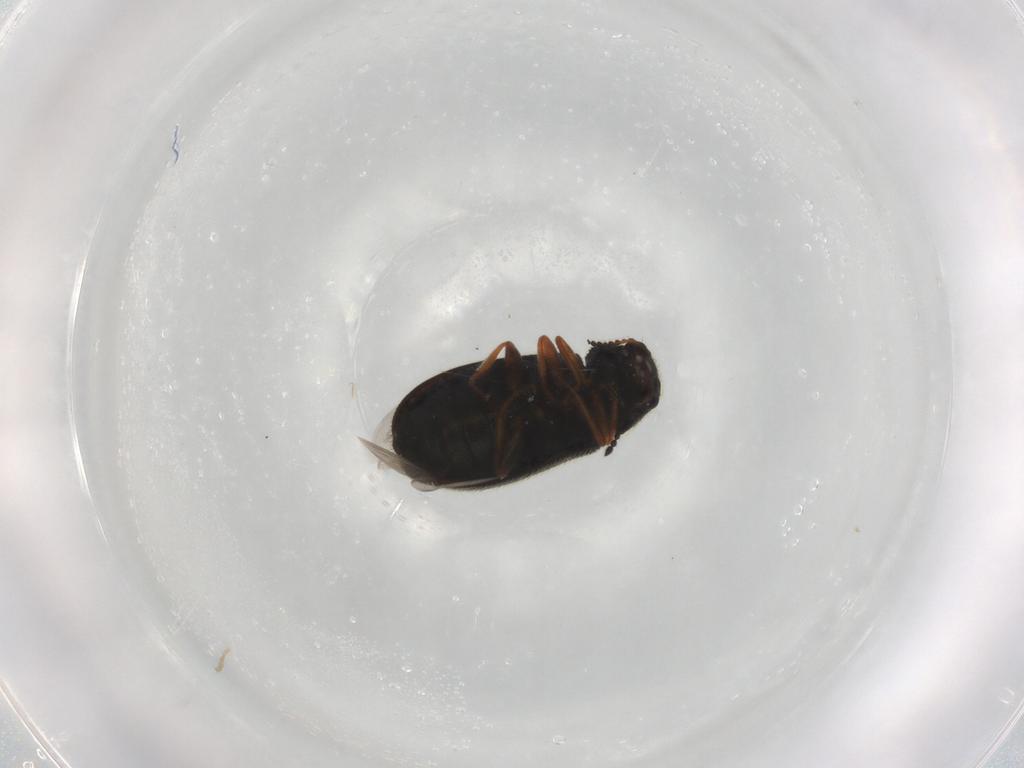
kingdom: Animalia
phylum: Arthropoda
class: Insecta
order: Coleoptera
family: Melyridae
